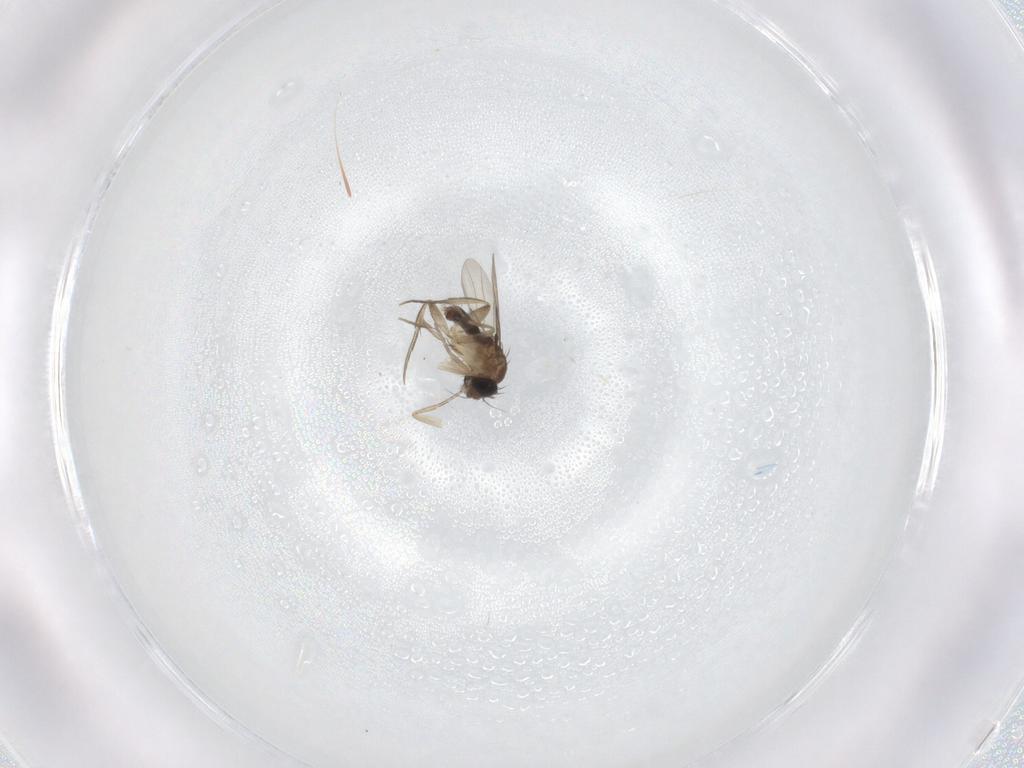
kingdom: Animalia
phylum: Arthropoda
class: Insecta
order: Diptera
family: Phoridae
